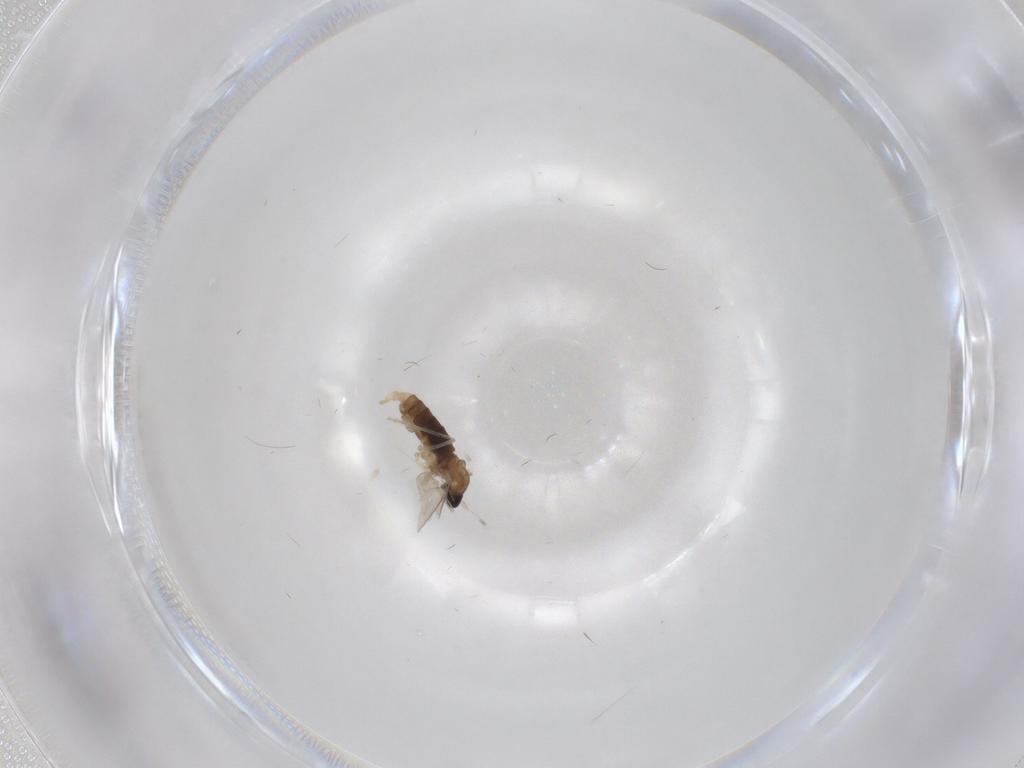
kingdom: Animalia
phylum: Arthropoda
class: Insecta
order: Diptera
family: Cecidomyiidae
